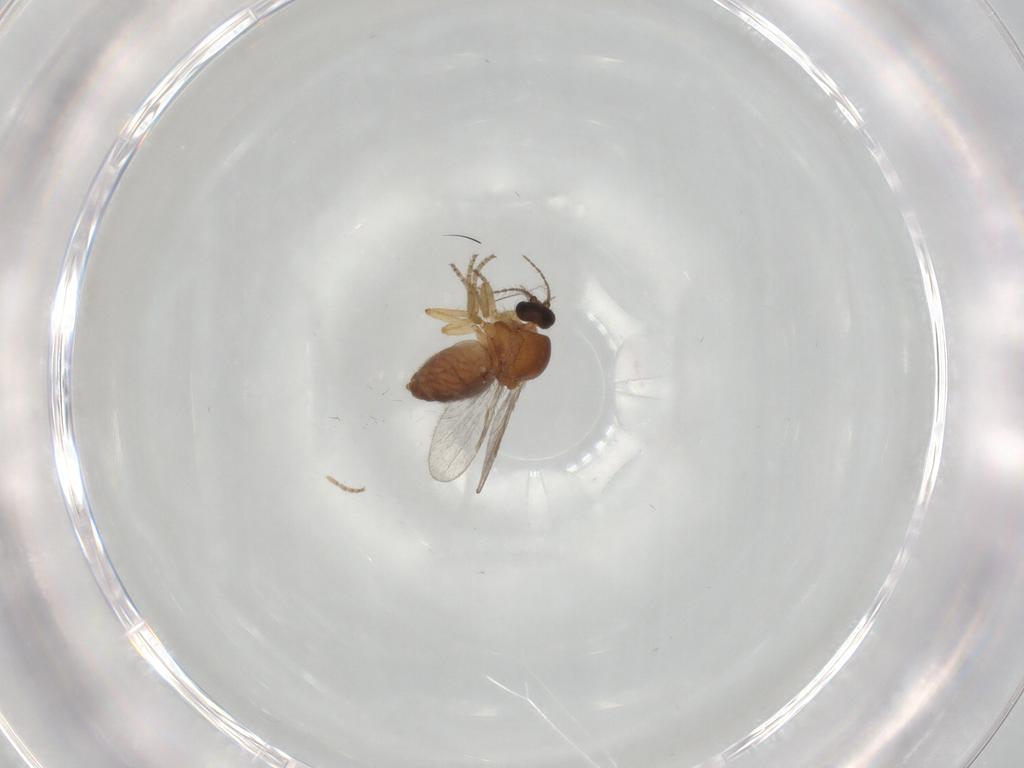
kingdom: Animalia
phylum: Arthropoda
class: Insecta
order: Diptera
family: Ceratopogonidae
